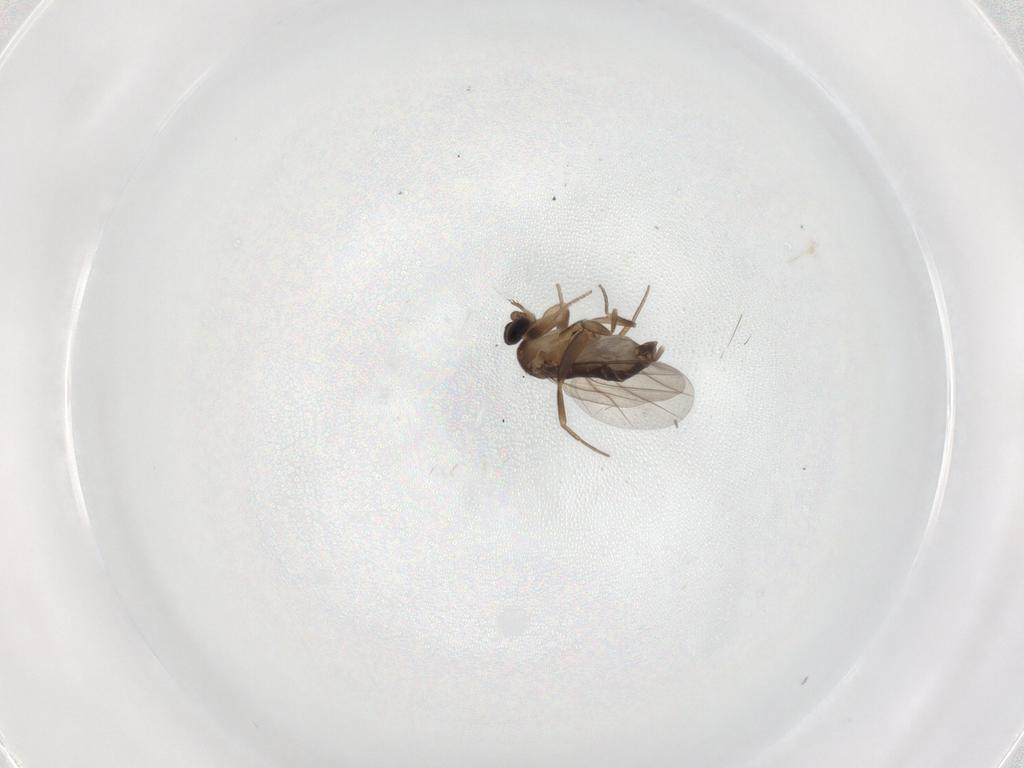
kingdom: Animalia
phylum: Arthropoda
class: Insecta
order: Diptera
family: Phoridae
